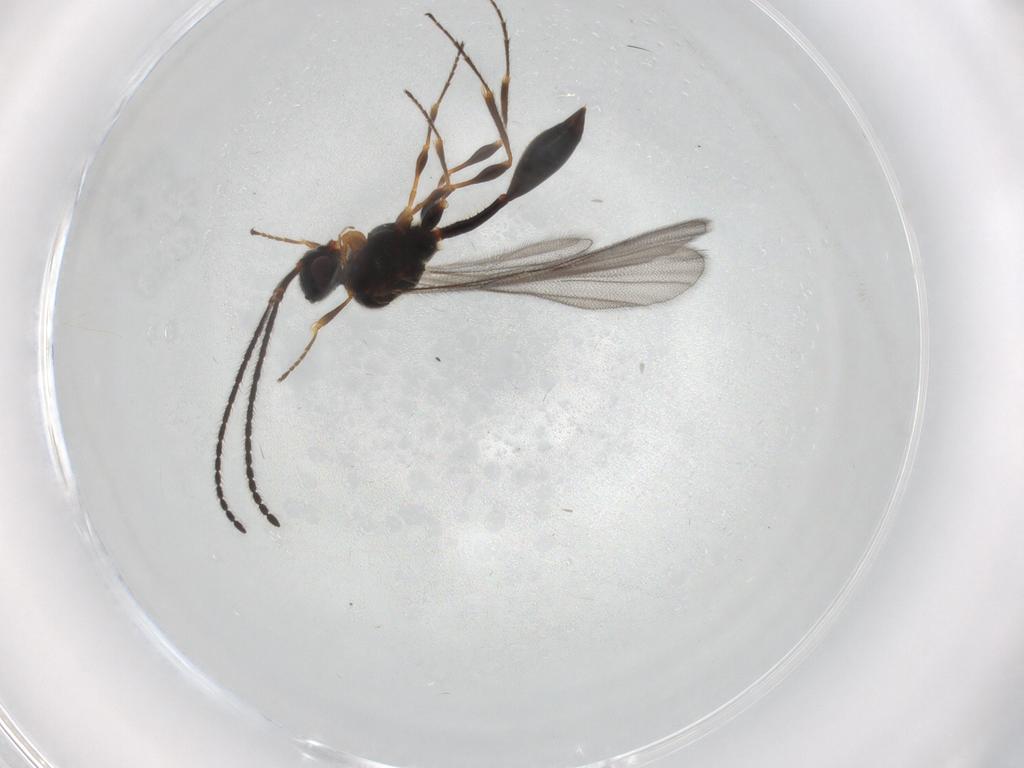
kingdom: Animalia
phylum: Arthropoda
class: Insecta
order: Hymenoptera
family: Diapriidae
